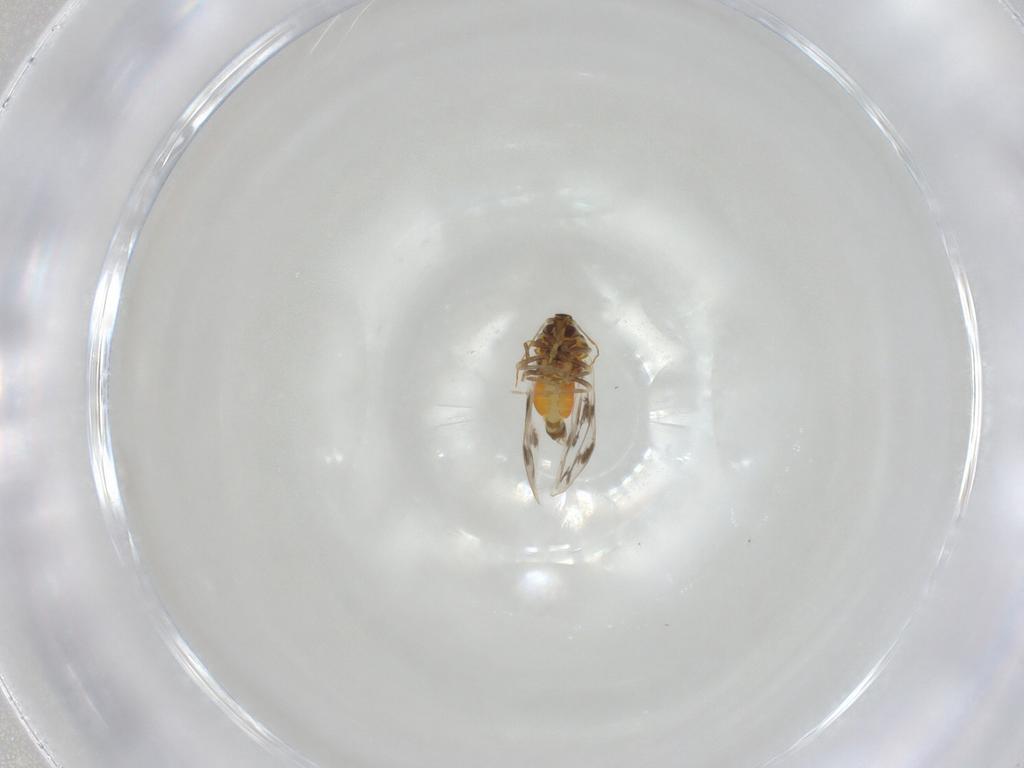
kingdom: Animalia
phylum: Arthropoda
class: Insecta
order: Hemiptera
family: Aleyrodidae
